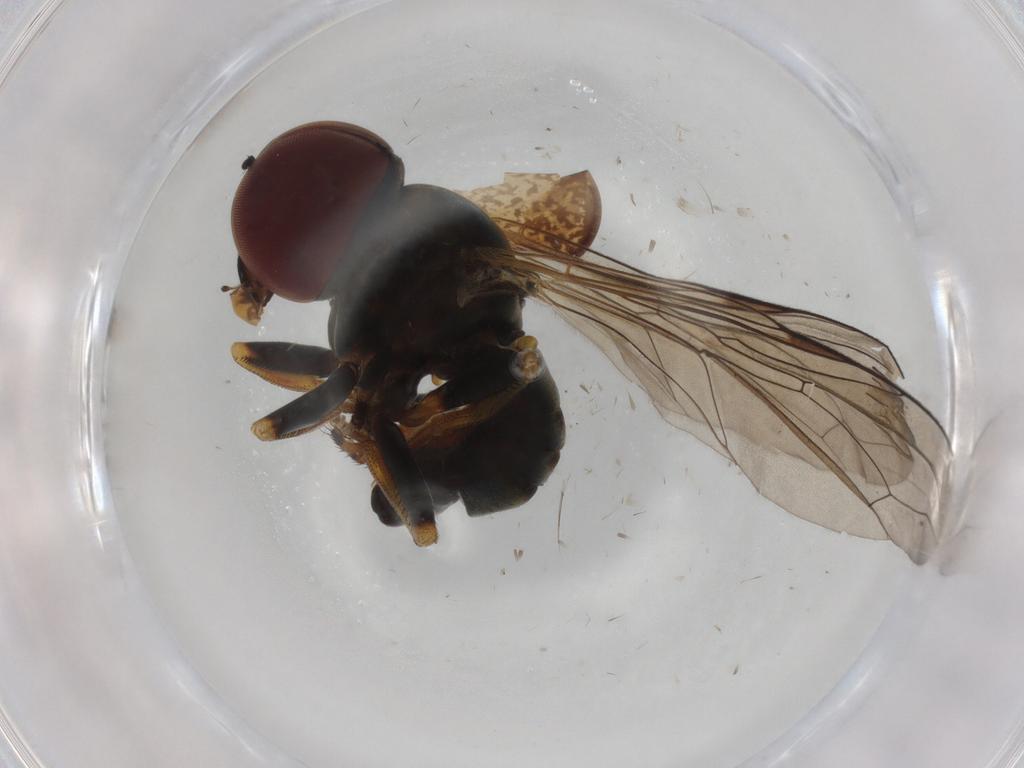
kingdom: Animalia
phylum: Arthropoda
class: Insecta
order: Diptera
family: Pipunculidae
